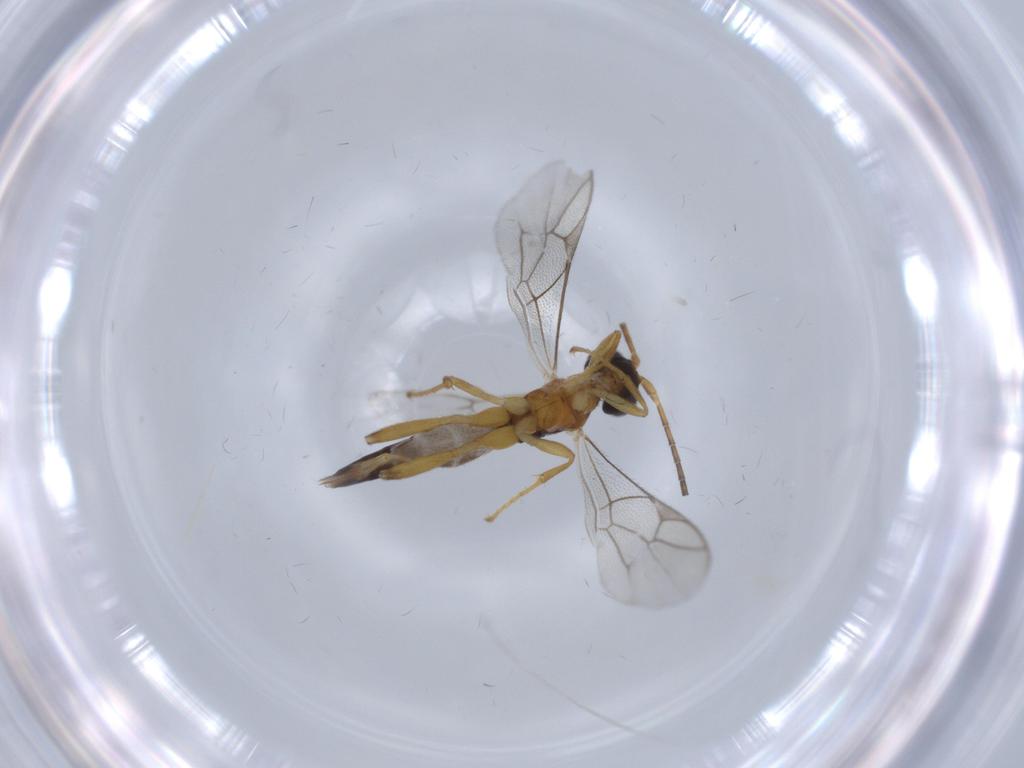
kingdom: Animalia
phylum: Arthropoda
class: Insecta
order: Hymenoptera
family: Ichneumonidae
